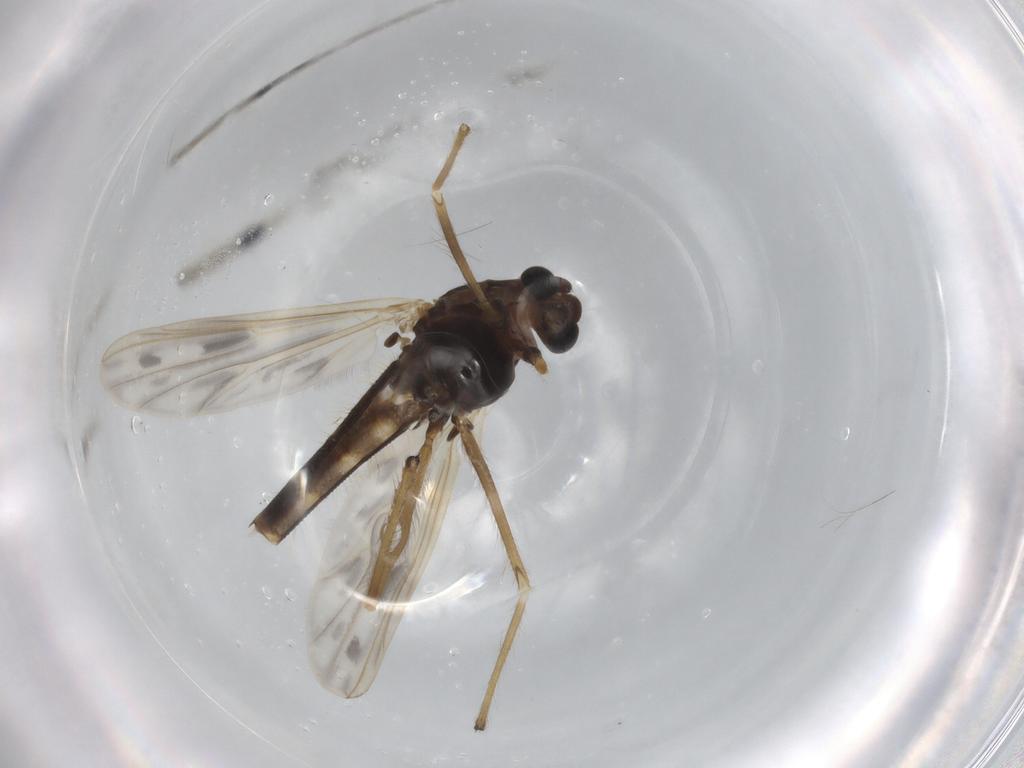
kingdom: Animalia
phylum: Arthropoda
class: Insecta
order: Diptera
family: Chironomidae
